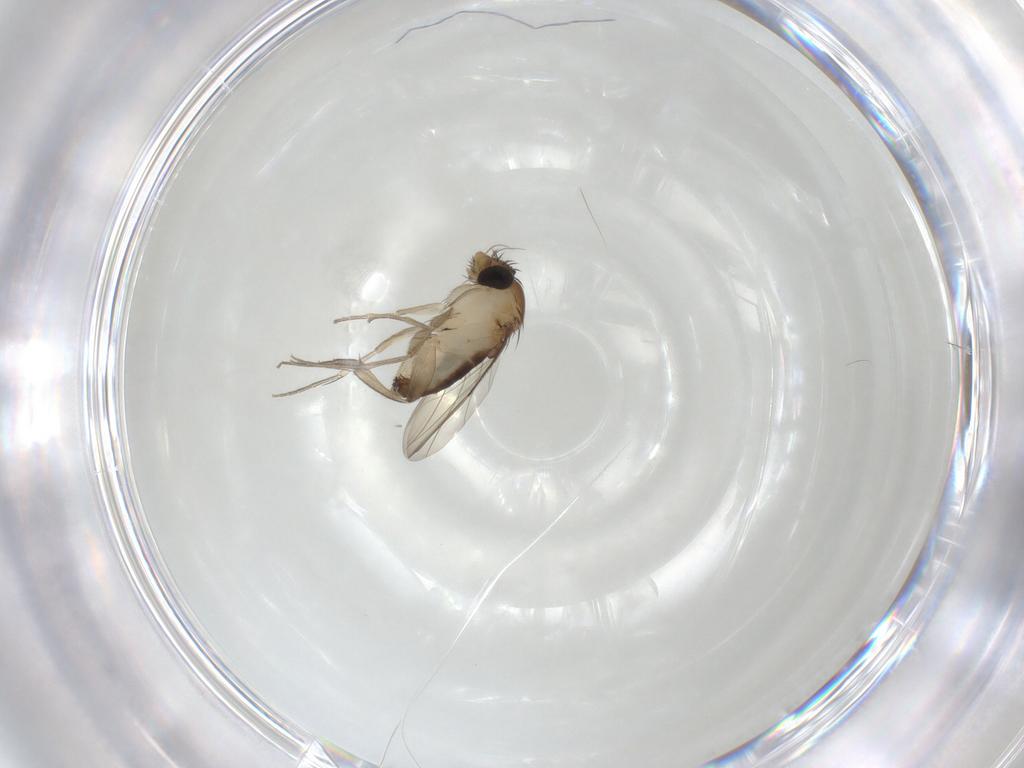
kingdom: Animalia
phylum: Arthropoda
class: Insecta
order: Diptera
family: Phoridae
